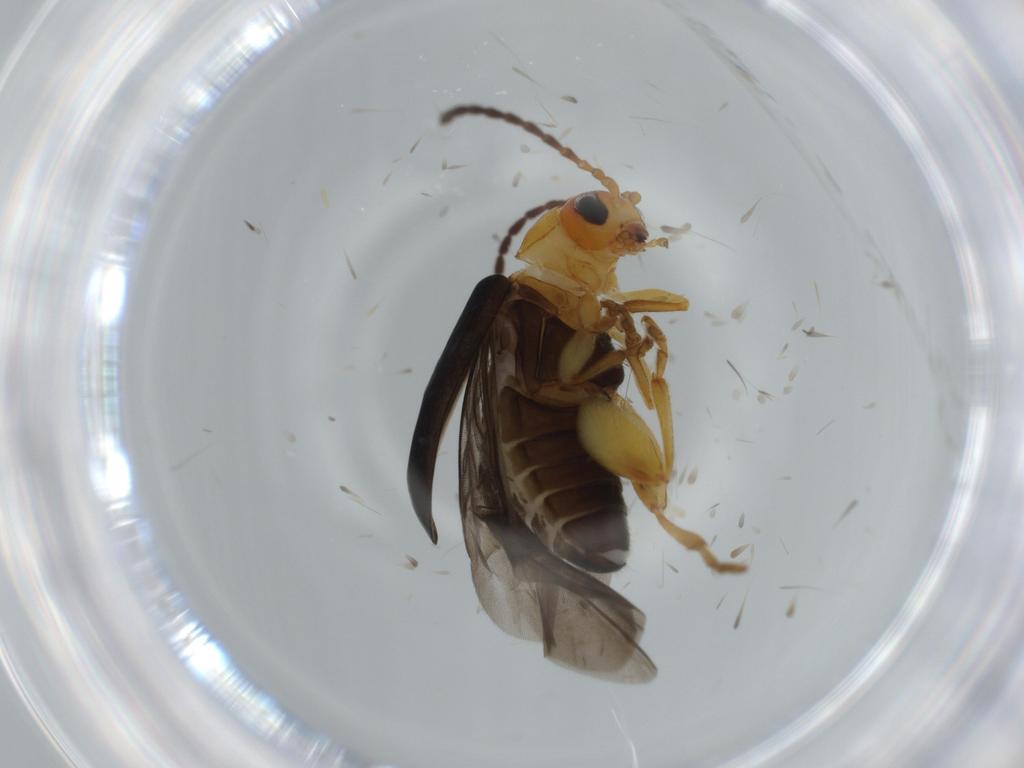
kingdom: Animalia
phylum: Arthropoda
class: Insecta
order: Coleoptera
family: Chrysomelidae
